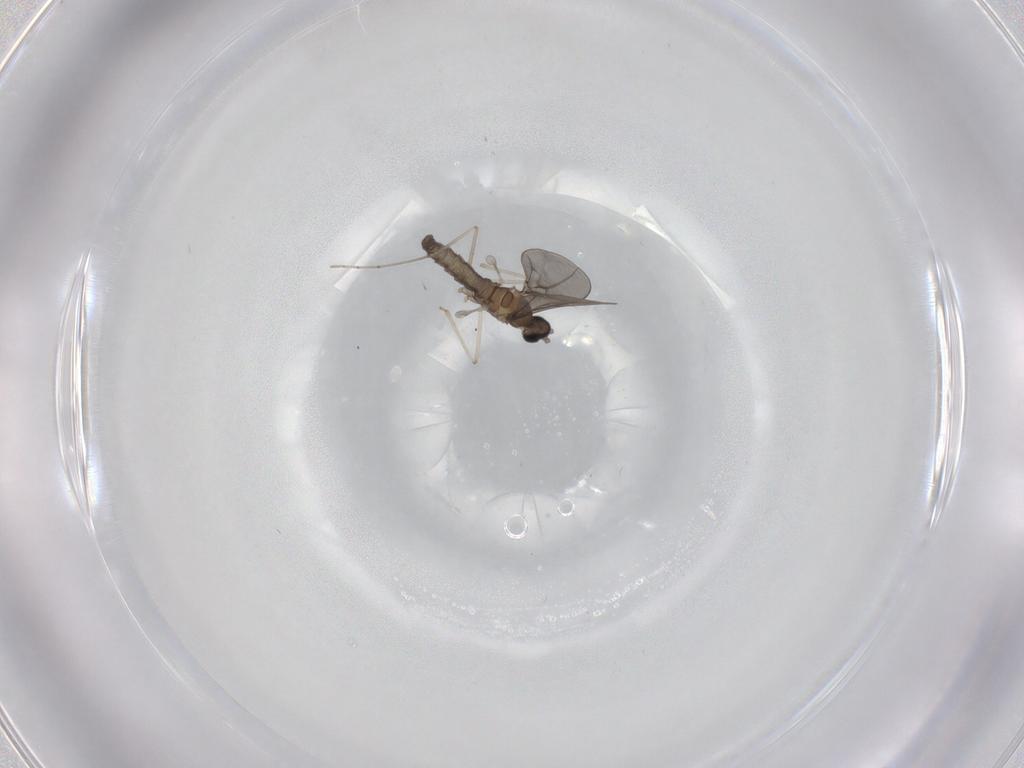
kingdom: Animalia
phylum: Arthropoda
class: Insecta
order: Diptera
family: Cecidomyiidae
